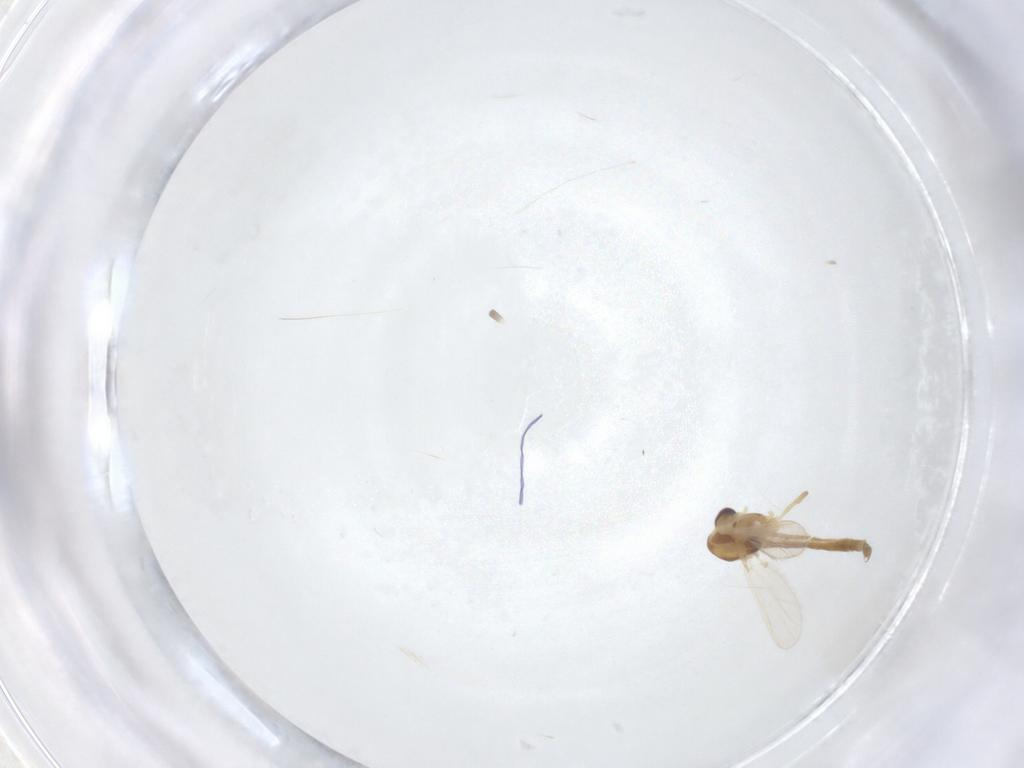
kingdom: Animalia
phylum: Arthropoda
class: Insecta
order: Diptera
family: Chironomidae
